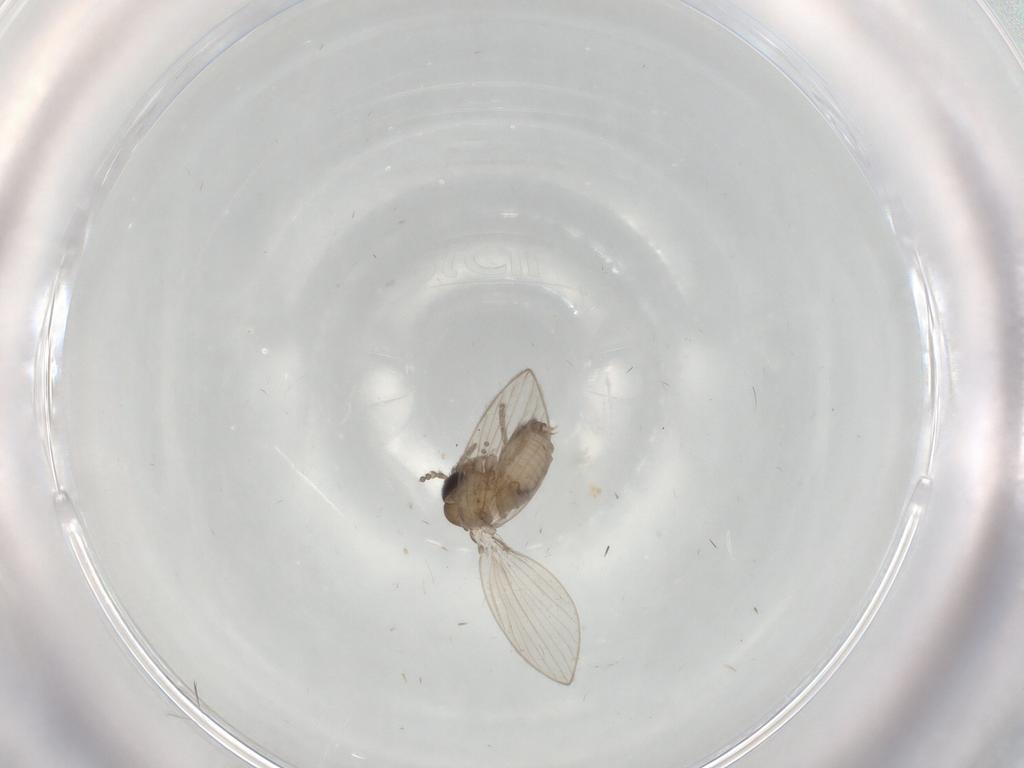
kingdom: Animalia
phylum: Arthropoda
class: Insecta
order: Diptera
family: Psychodidae
